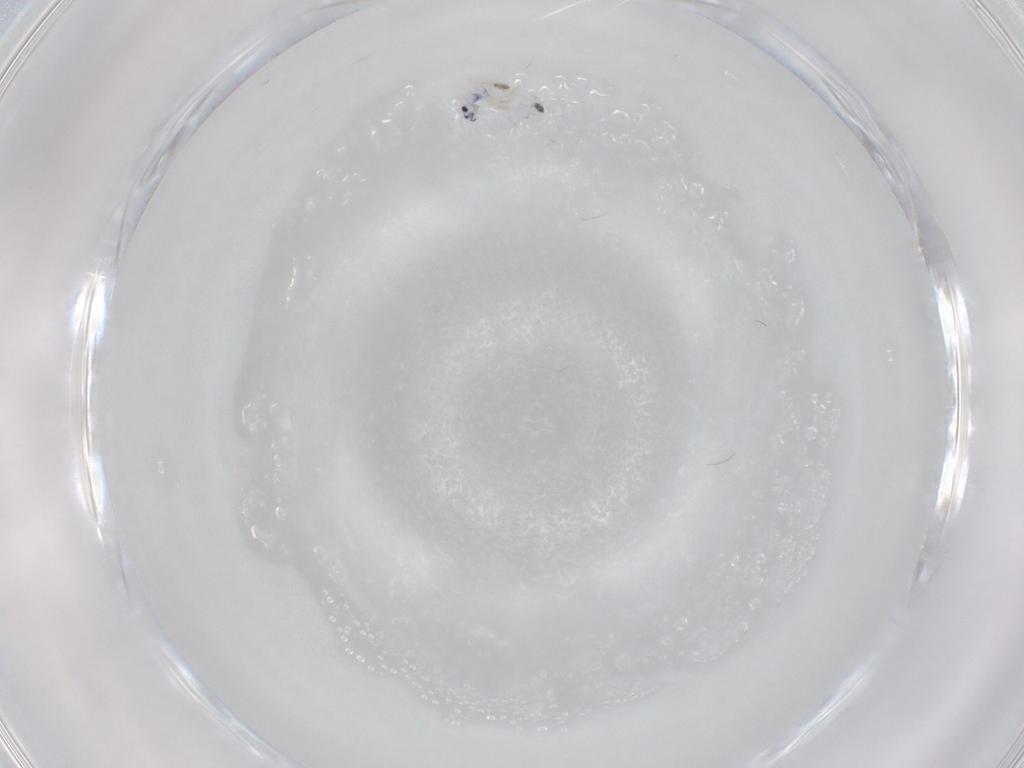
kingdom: Animalia
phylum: Arthropoda
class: Collembola
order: Entomobryomorpha
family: Entomobryidae
